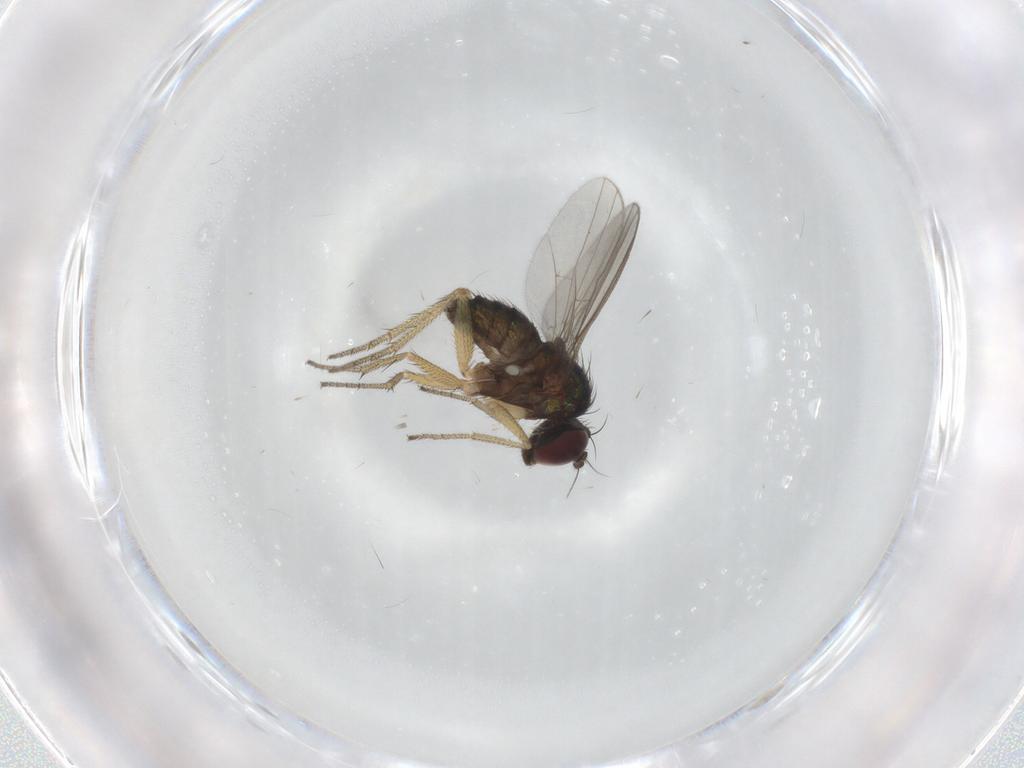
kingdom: Animalia
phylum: Arthropoda
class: Insecta
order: Diptera
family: Dolichopodidae
